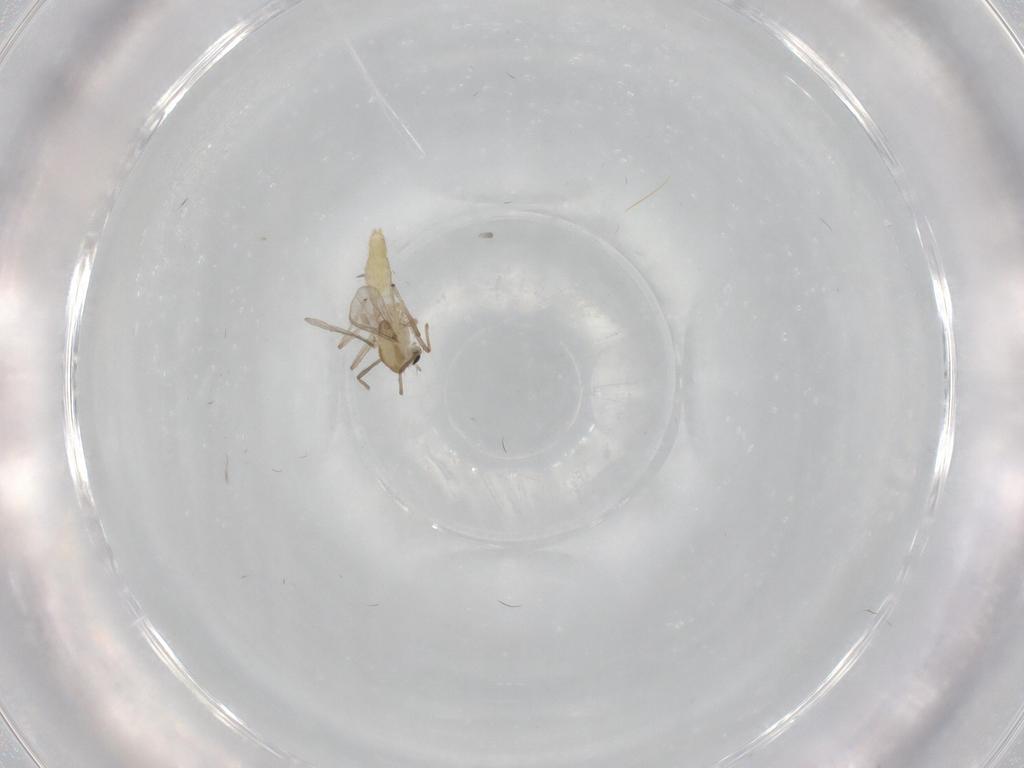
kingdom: Animalia
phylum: Arthropoda
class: Insecta
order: Diptera
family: Chironomidae
